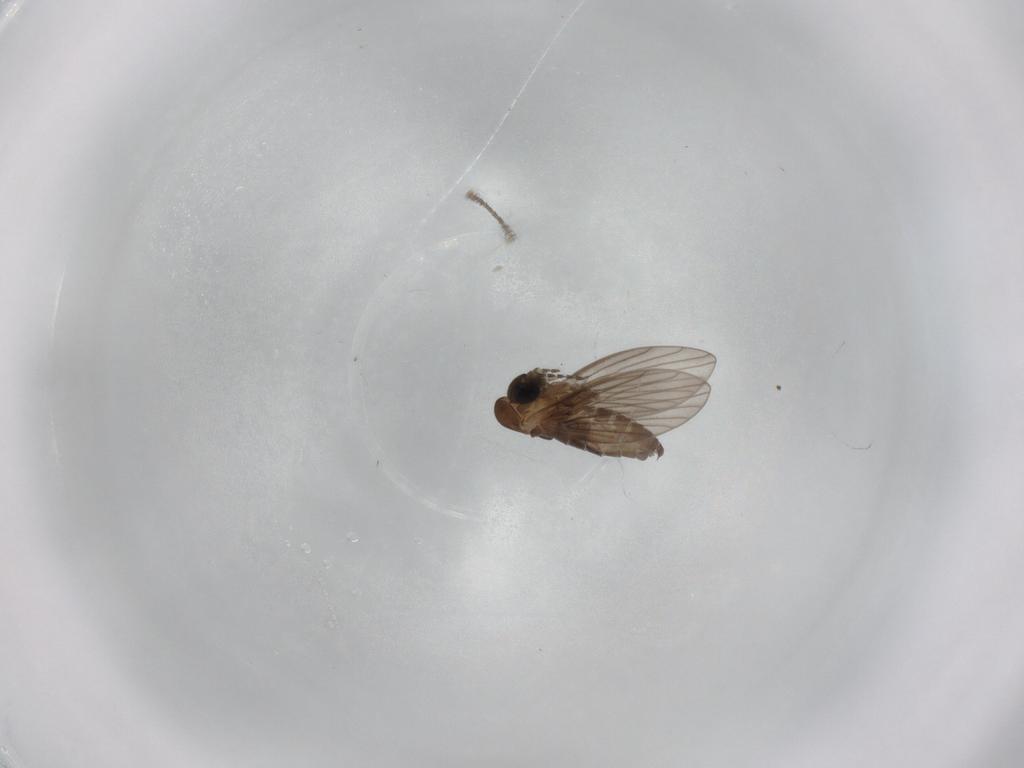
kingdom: Animalia
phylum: Arthropoda
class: Insecta
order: Diptera
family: Psychodidae
